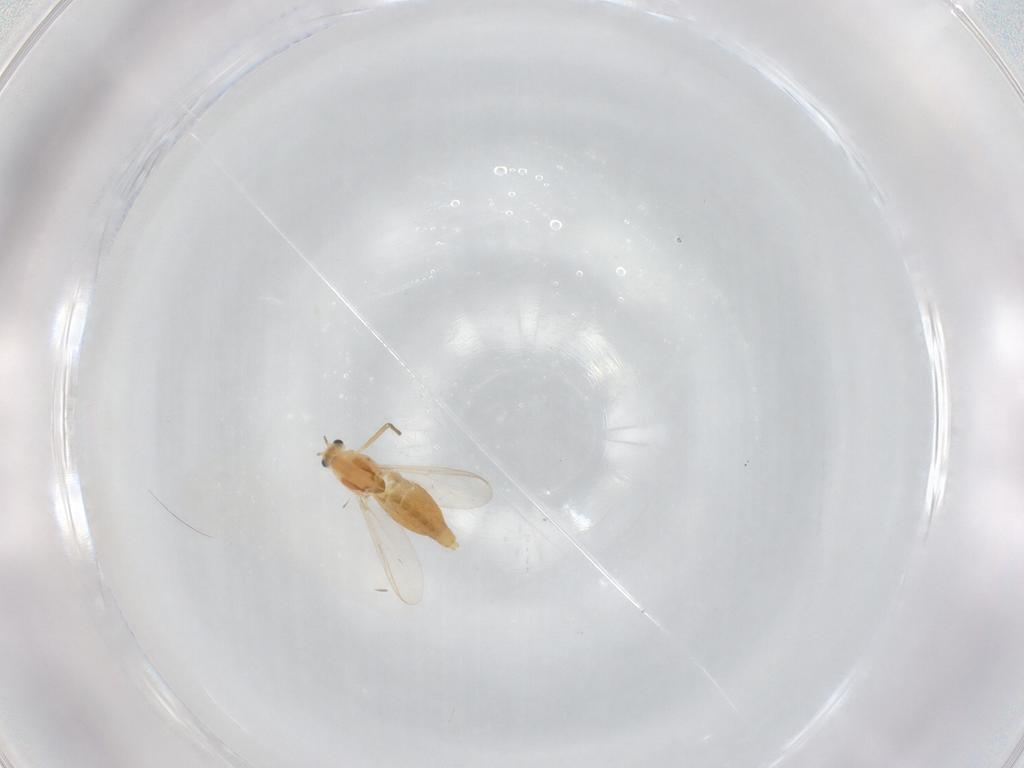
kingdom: Animalia
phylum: Arthropoda
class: Insecta
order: Diptera
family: Chironomidae
